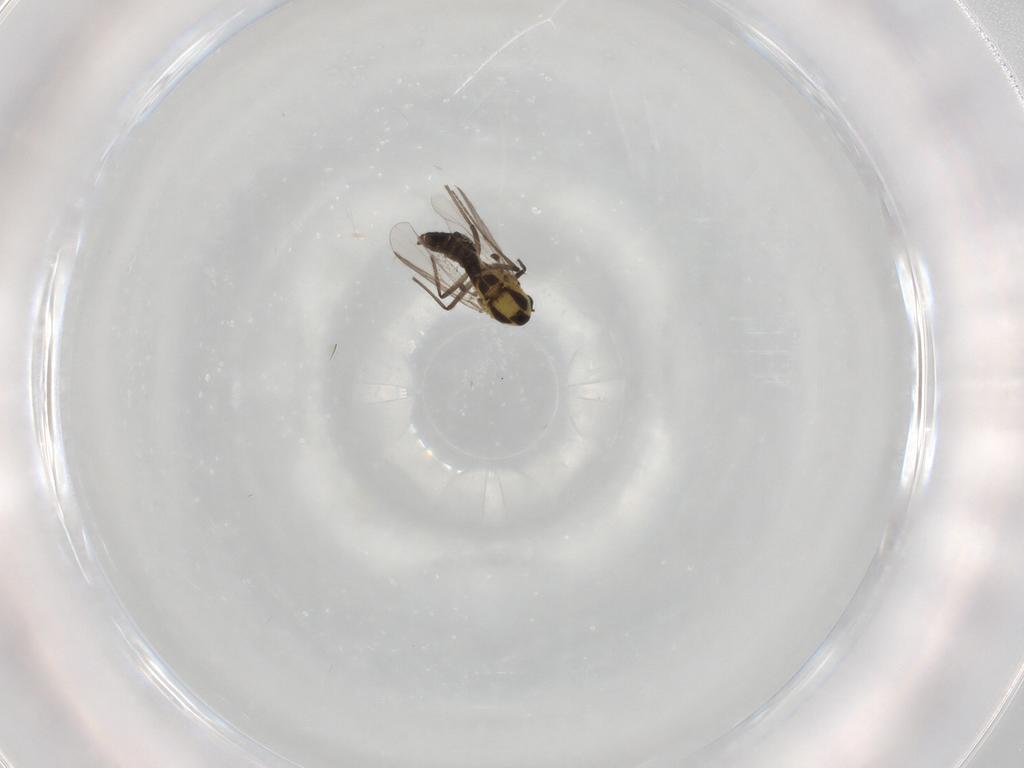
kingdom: Animalia
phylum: Arthropoda
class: Insecta
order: Diptera
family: Chironomidae
